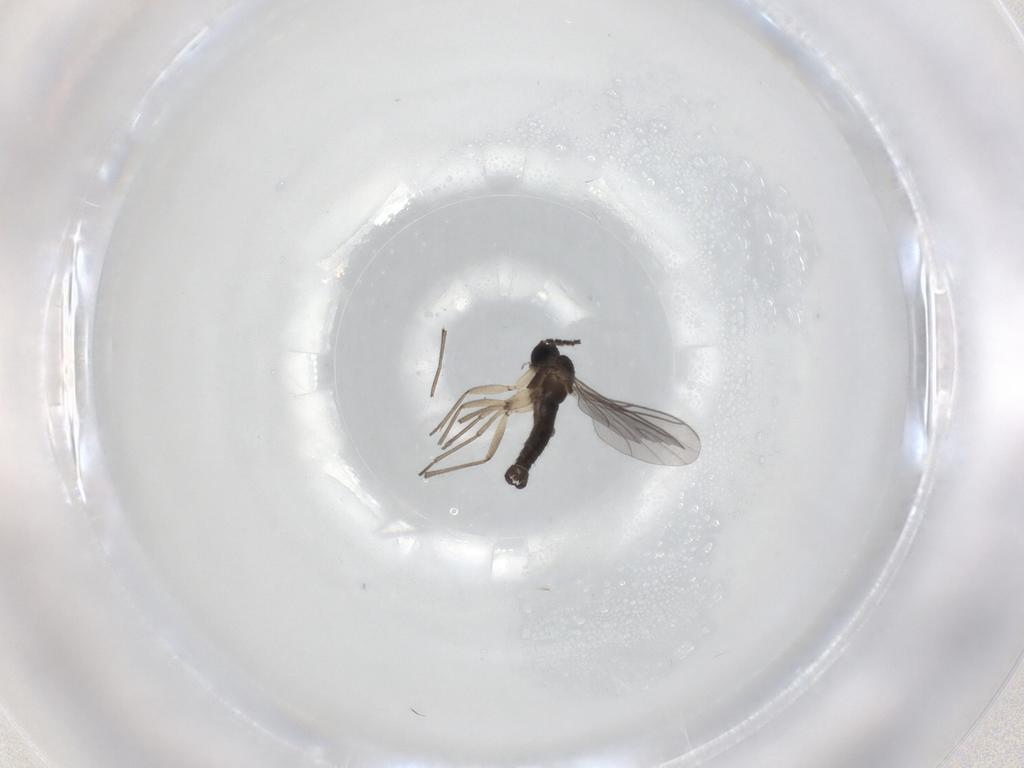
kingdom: Animalia
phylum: Arthropoda
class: Insecta
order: Diptera
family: Sciaridae
